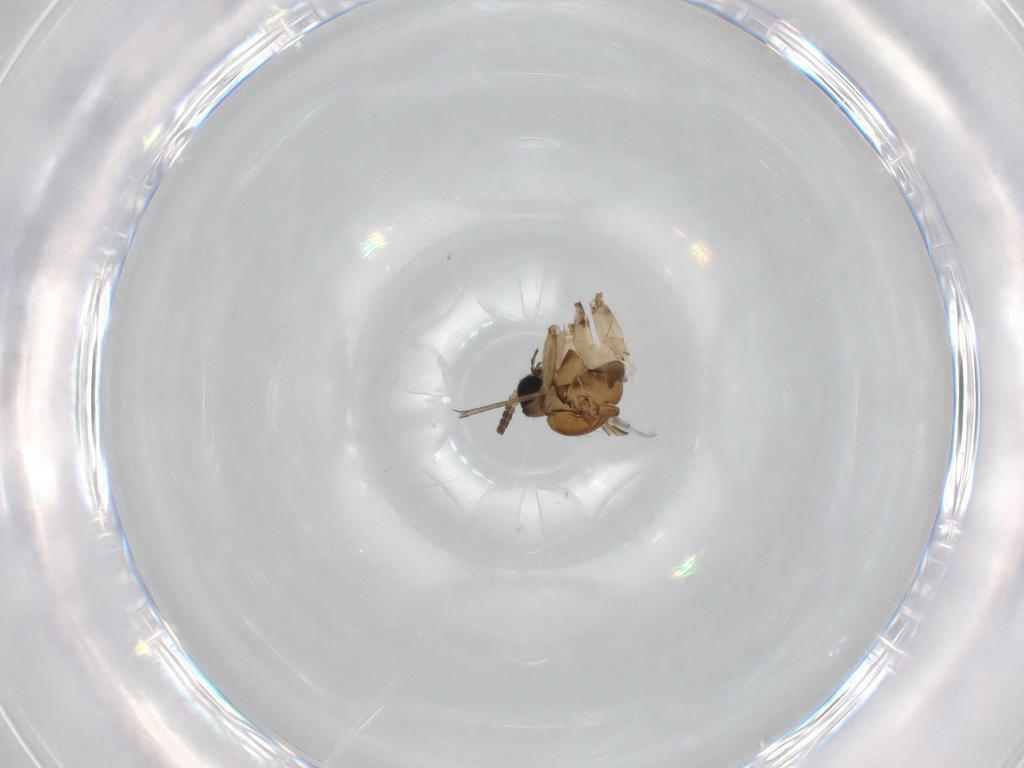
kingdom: Animalia
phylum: Arthropoda
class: Insecta
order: Diptera
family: Sciaridae
